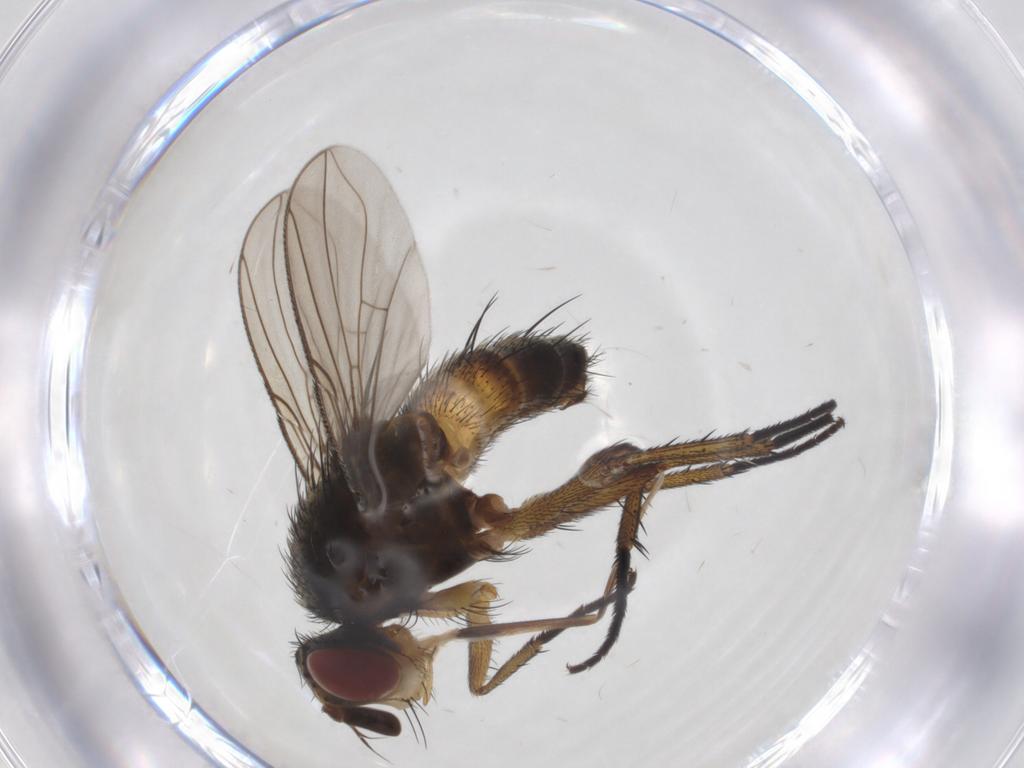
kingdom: Animalia
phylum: Arthropoda
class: Insecta
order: Diptera
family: Tachinidae
